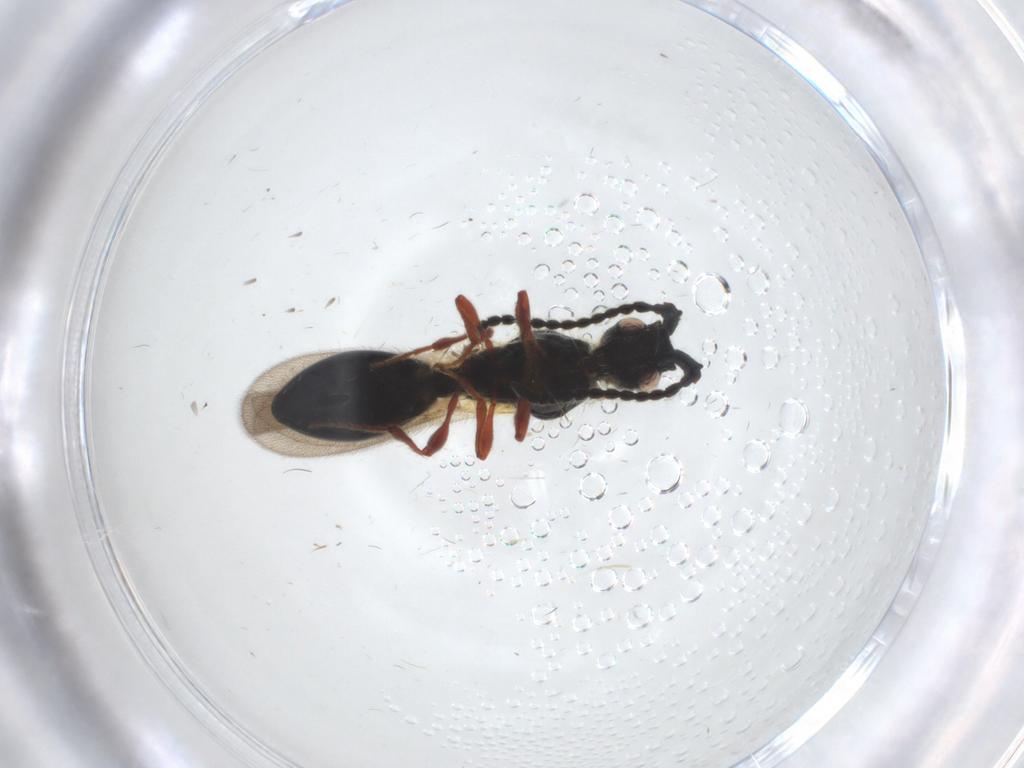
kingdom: Animalia
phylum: Arthropoda
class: Insecta
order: Hymenoptera
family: Diapriidae
